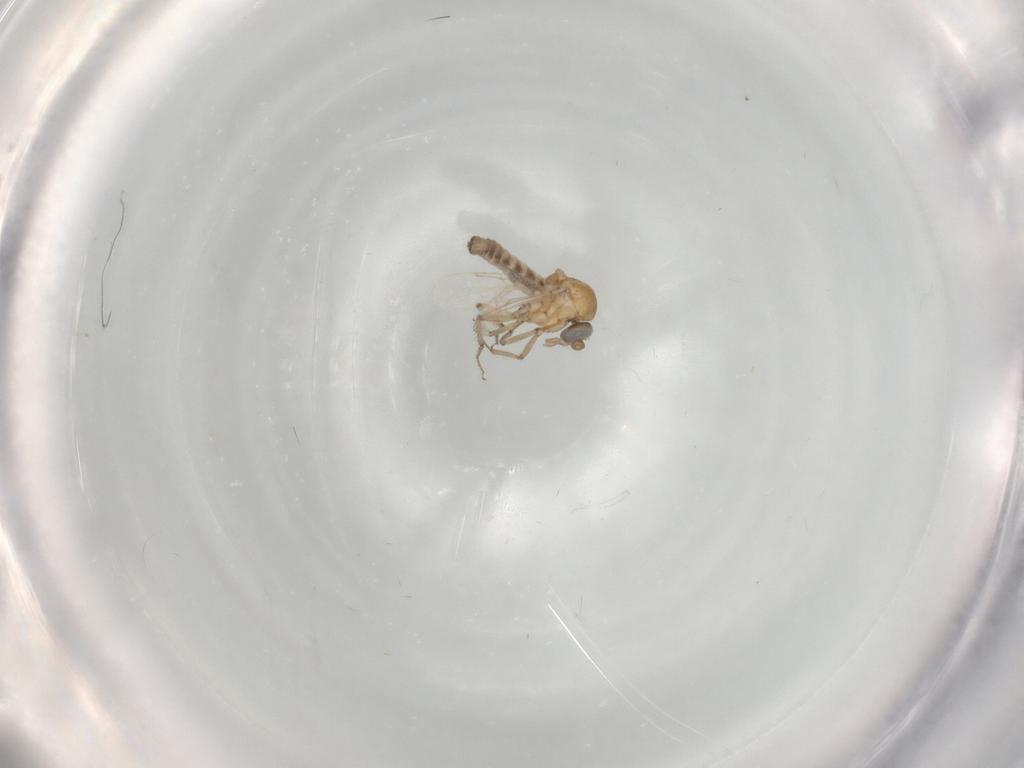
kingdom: Animalia
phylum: Arthropoda
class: Insecta
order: Diptera
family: Ceratopogonidae
